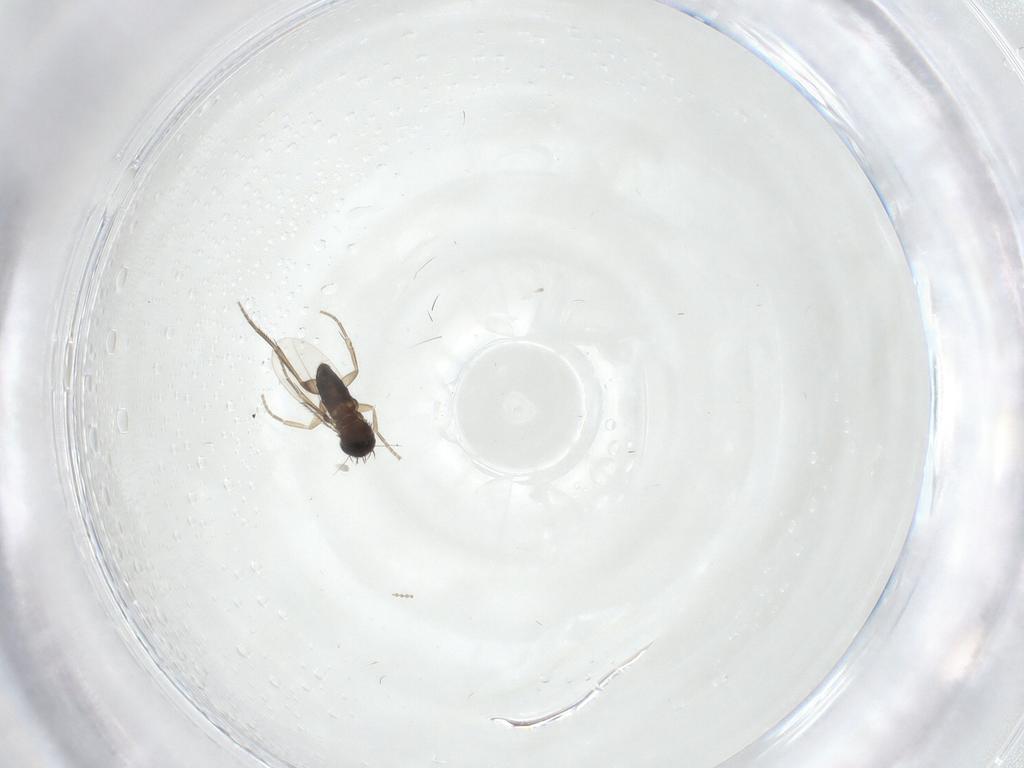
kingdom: Animalia
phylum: Arthropoda
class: Insecta
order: Diptera
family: Ceratopogonidae
